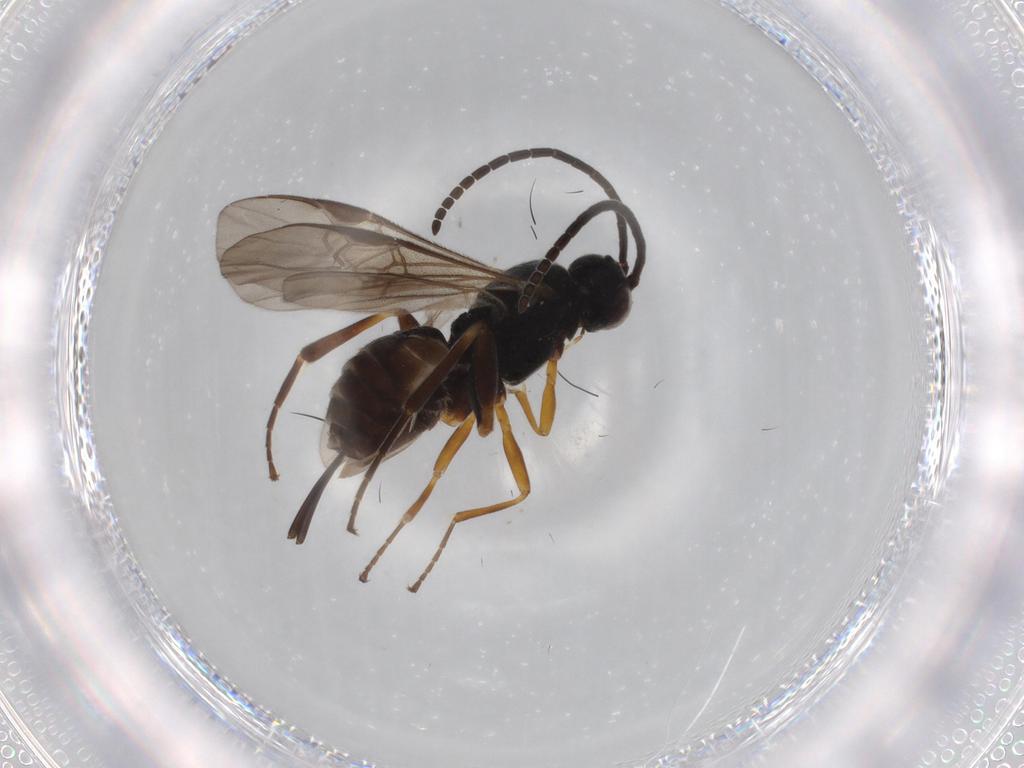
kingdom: Animalia
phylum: Arthropoda
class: Insecta
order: Hymenoptera
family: Braconidae
